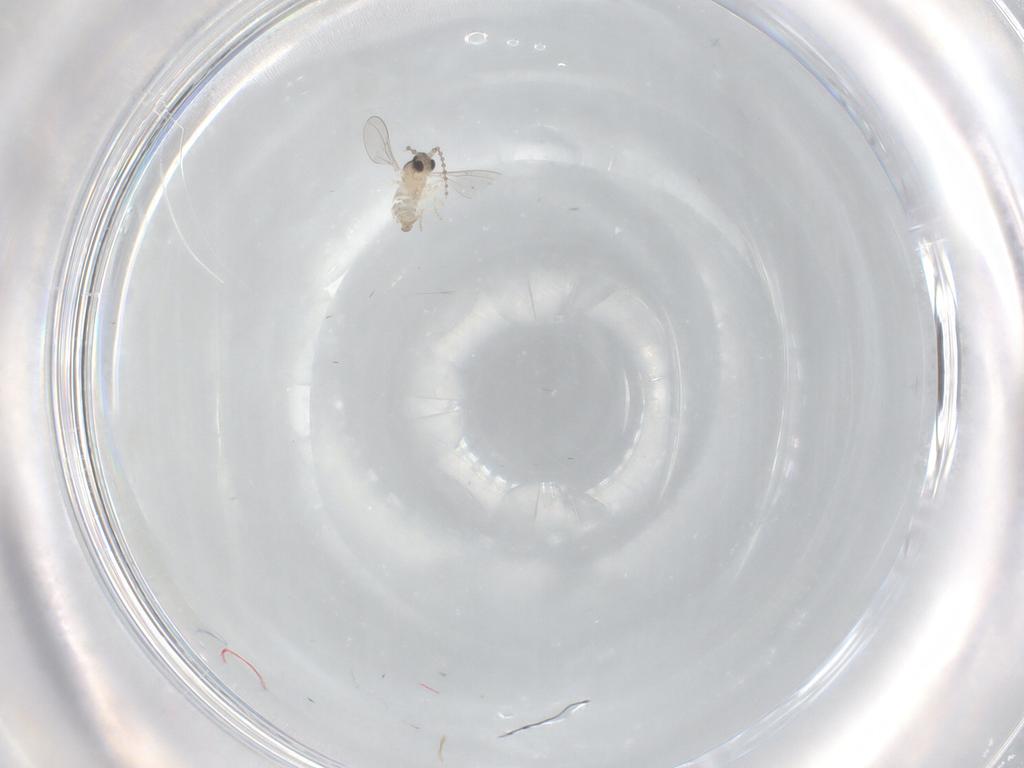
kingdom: Animalia
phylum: Arthropoda
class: Insecta
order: Diptera
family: Cecidomyiidae
